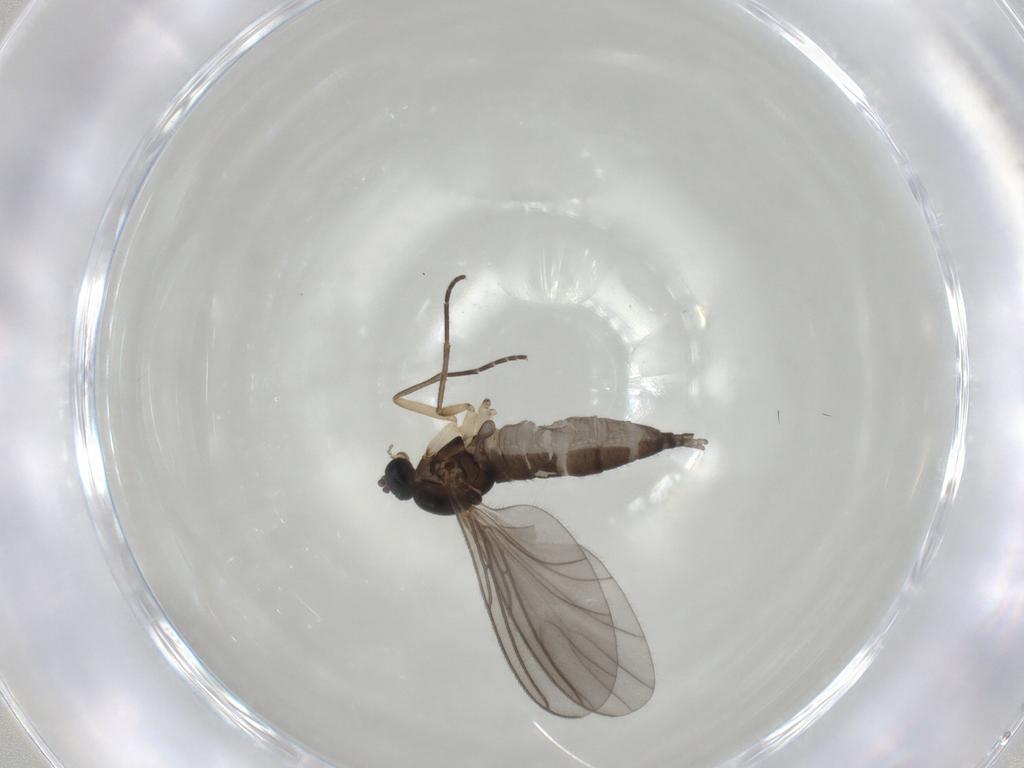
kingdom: Animalia
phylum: Arthropoda
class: Insecta
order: Diptera
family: Sciaridae
